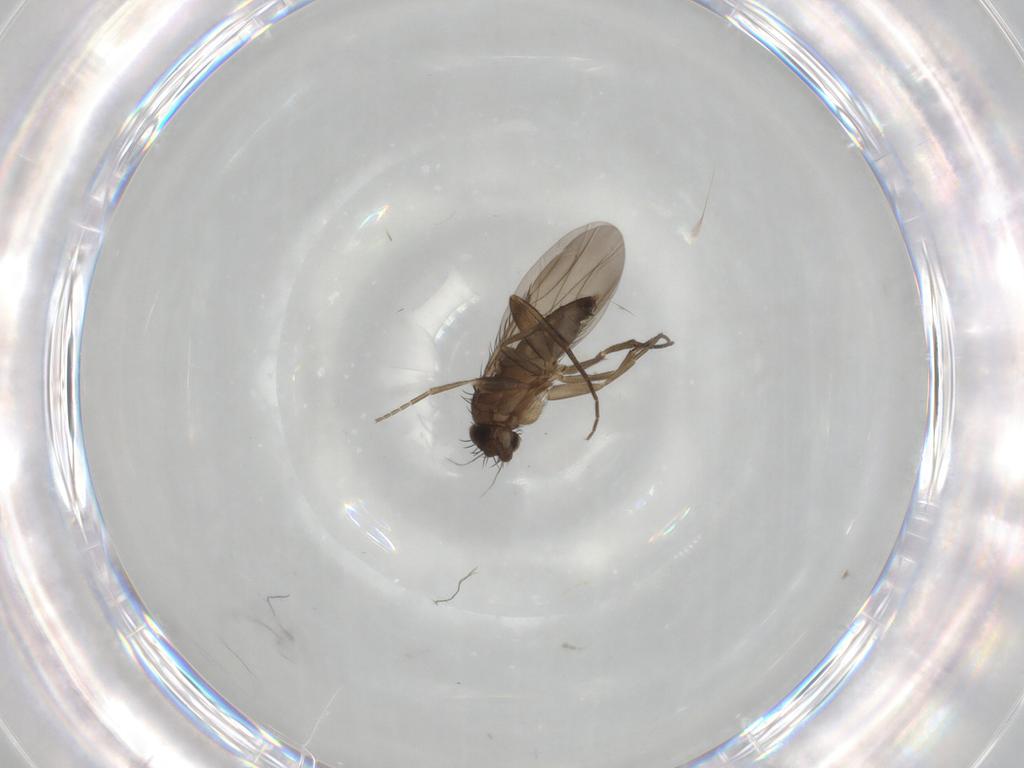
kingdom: Animalia
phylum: Arthropoda
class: Insecta
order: Diptera
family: Phoridae
